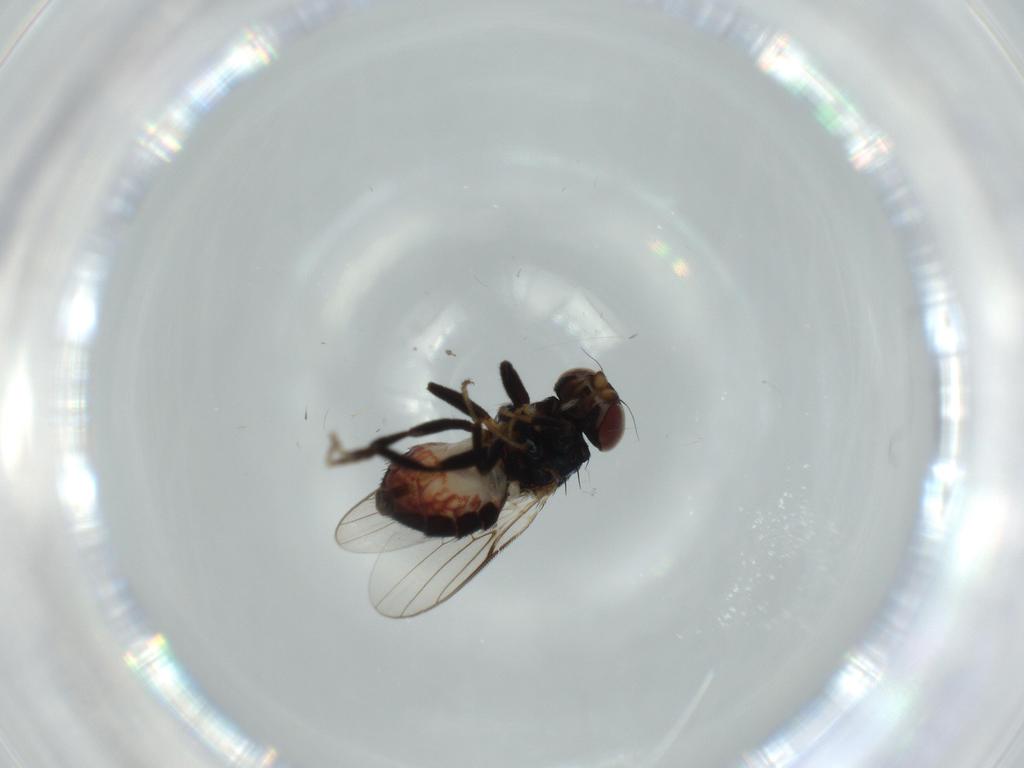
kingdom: Animalia
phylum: Arthropoda
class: Insecta
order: Diptera
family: Chloropidae
